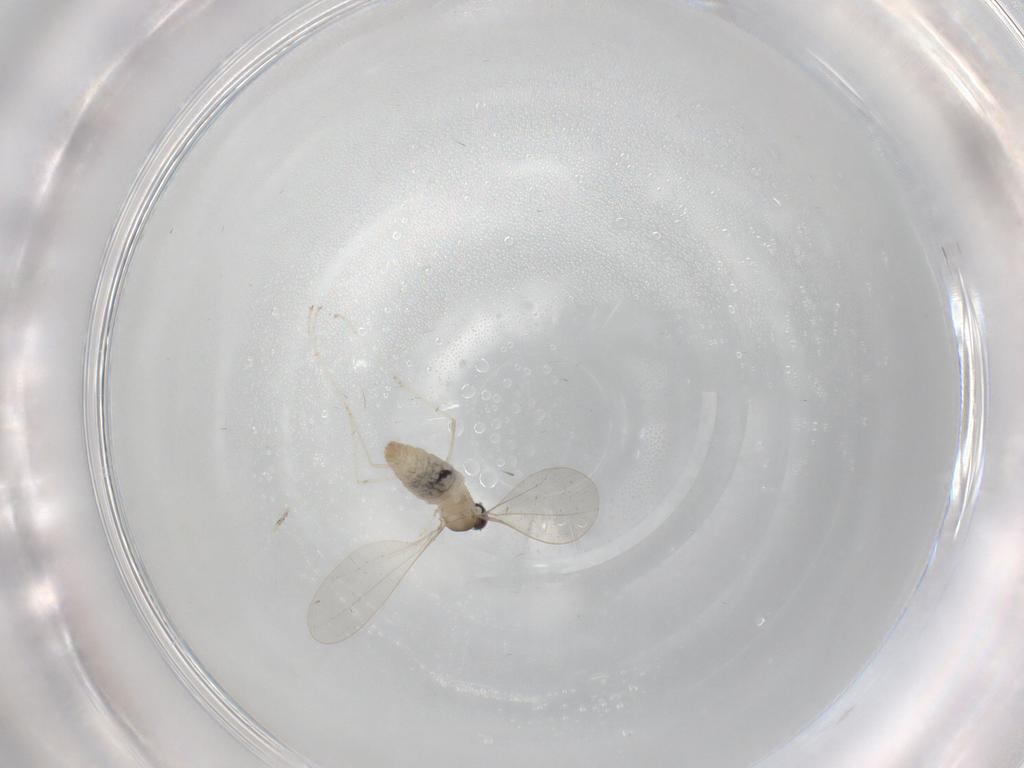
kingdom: Animalia
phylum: Arthropoda
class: Insecta
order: Diptera
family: Cecidomyiidae
